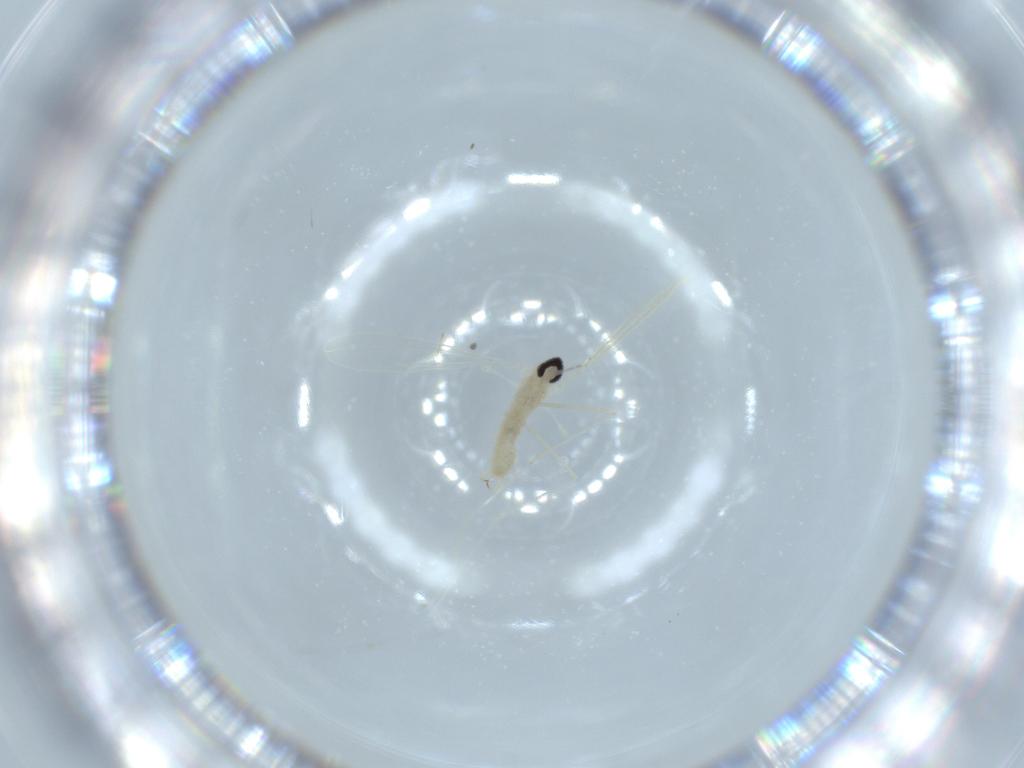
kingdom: Animalia
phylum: Arthropoda
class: Insecta
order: Diptera
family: Cecidomyiidae
